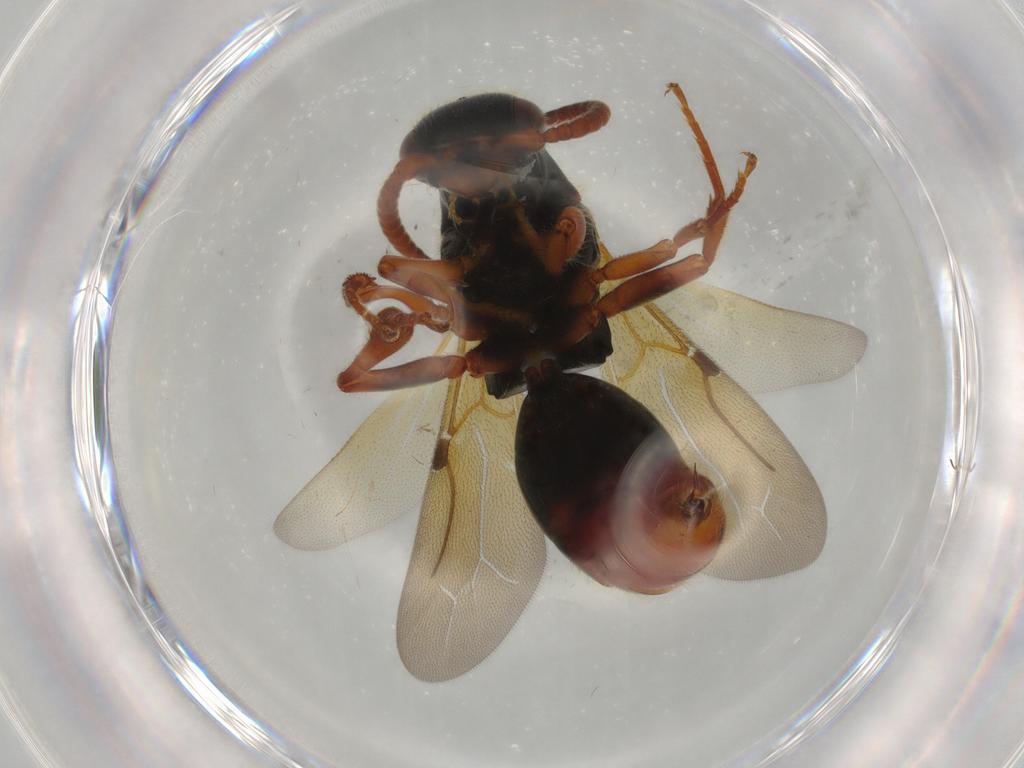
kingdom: Animalia
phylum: Arthropoda
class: Insecta
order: Hymenoptera
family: Bethylidae
